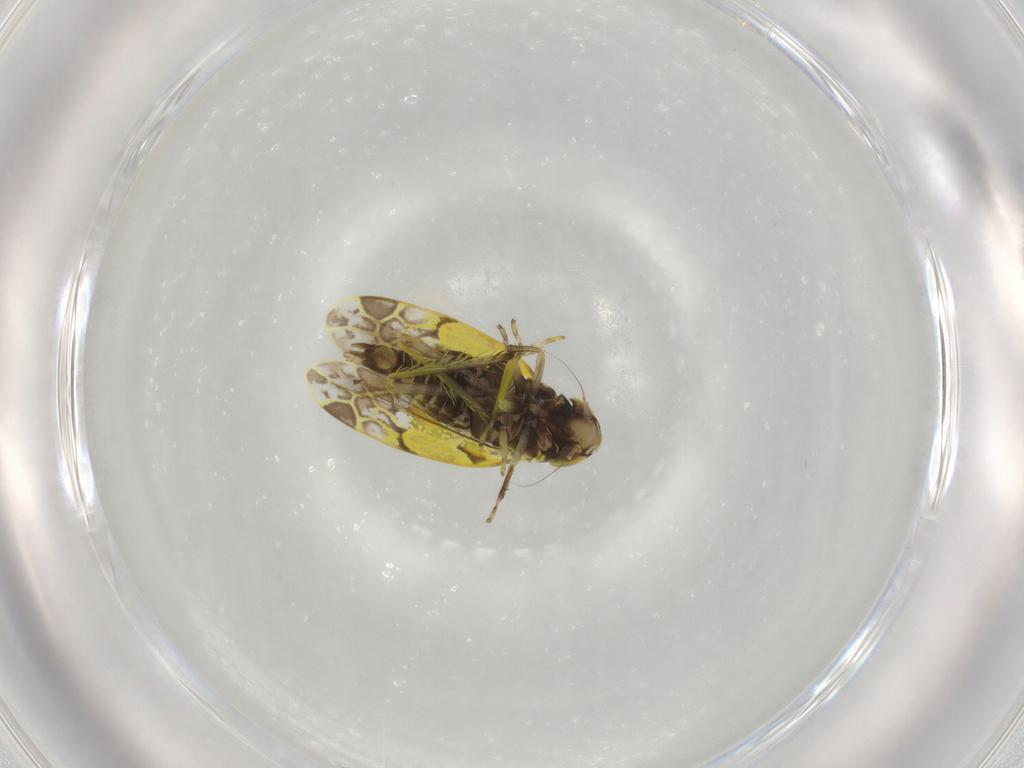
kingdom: Animalia
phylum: Arthropoda
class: Insecta
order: Hemiptera
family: Cicadellidae
